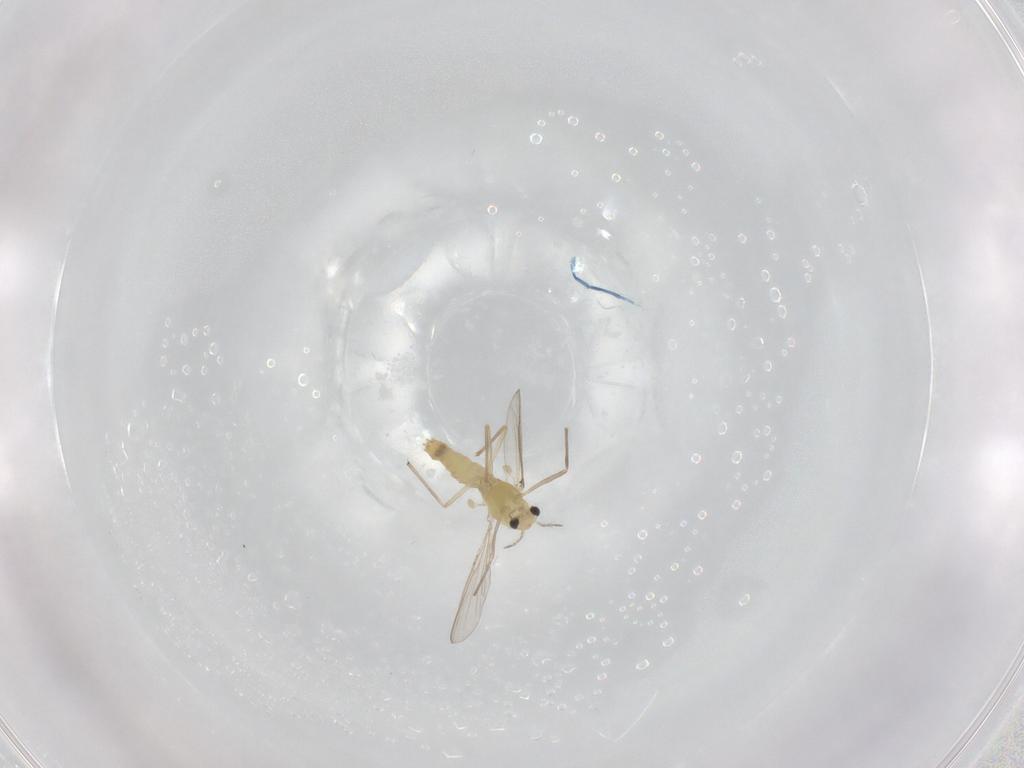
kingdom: Animalia
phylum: Arthropoda
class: Insecta
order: Diptera
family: Chironomidae
